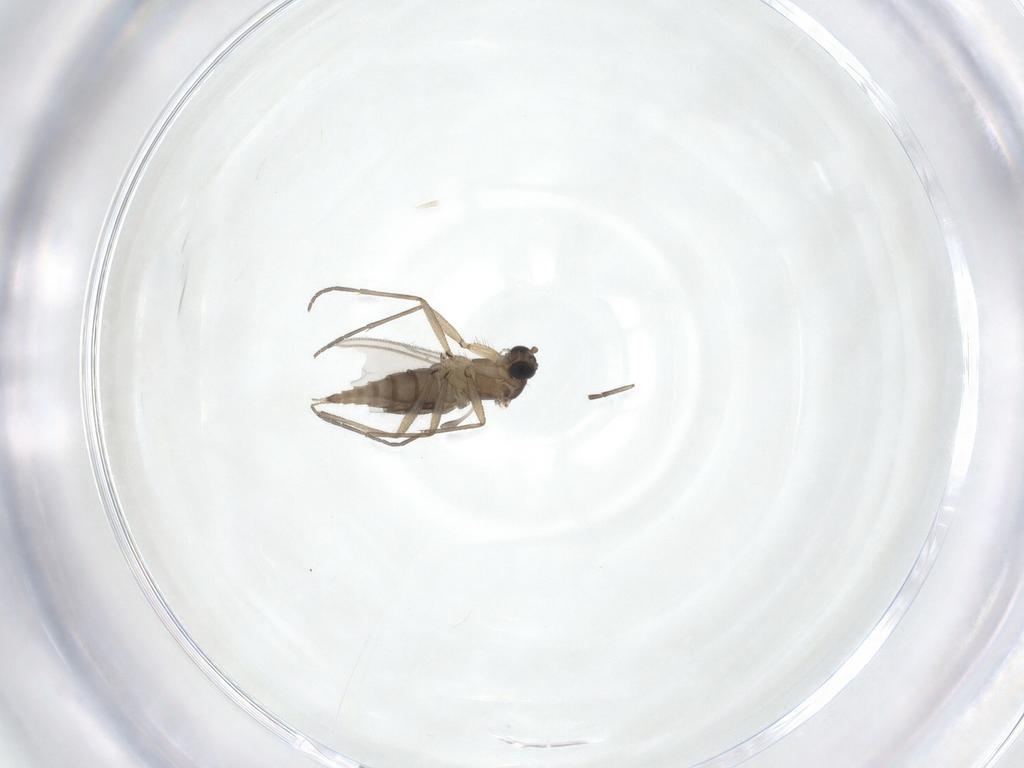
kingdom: Animalia
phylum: Arthropoda
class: Insecta
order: Diptera
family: Sciaridae
